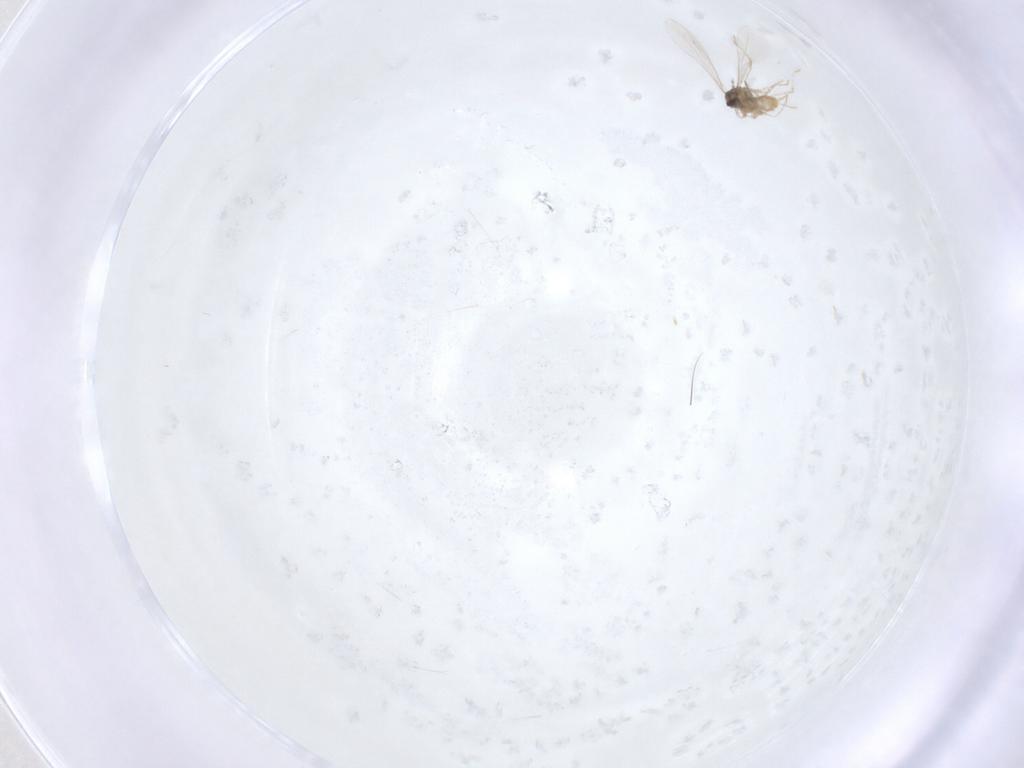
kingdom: Animalia
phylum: Arthropoda
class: Insecta
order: Diptera
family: Cecidomyiidae
